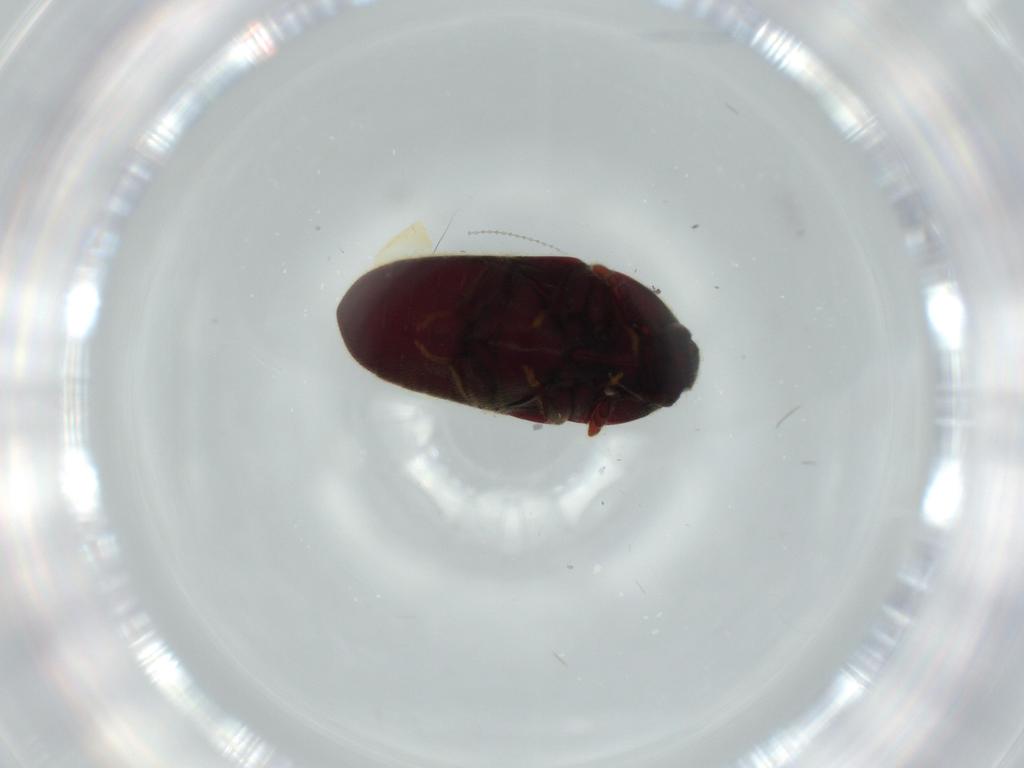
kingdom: Animalia
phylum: Arthropoda
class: Insecta
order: Coleoptera
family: Throscidae
